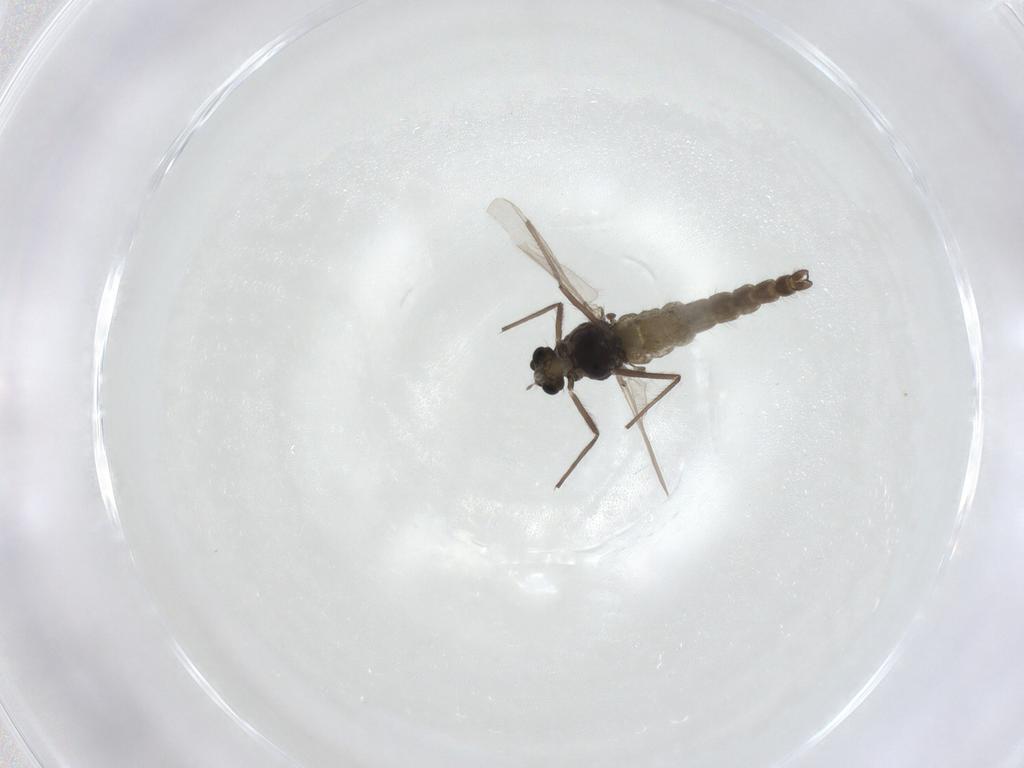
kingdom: Animalia
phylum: Arthropoda
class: Insecta
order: Diptera
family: Chironomidae
